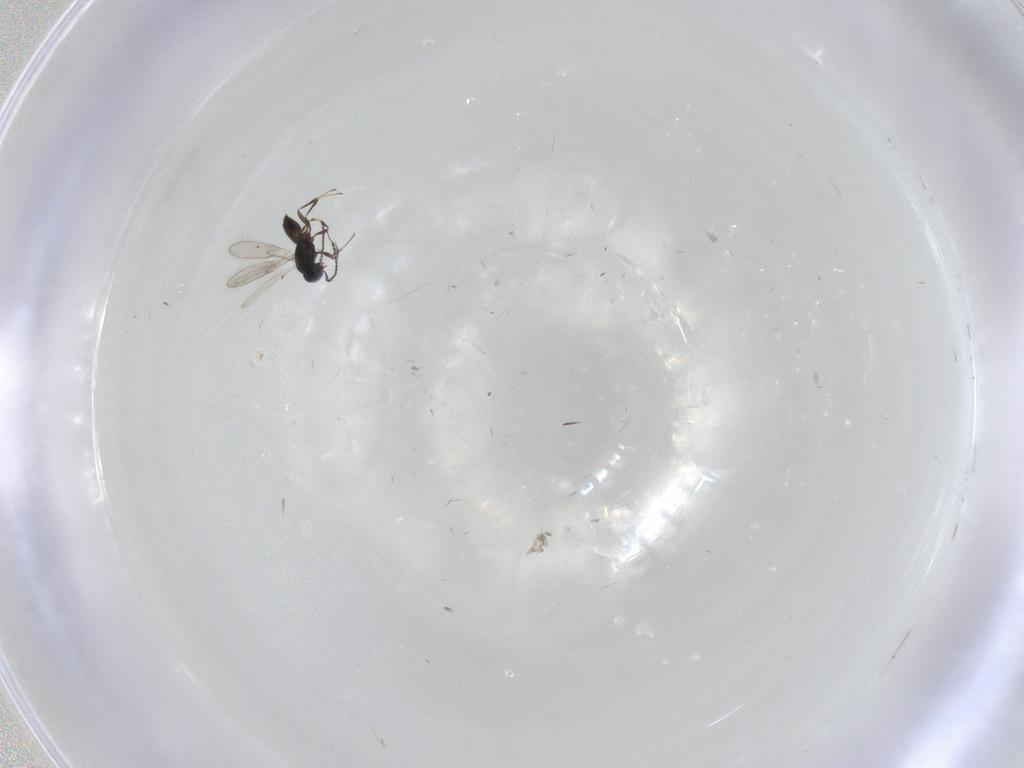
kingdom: Animalia
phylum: Arthropoda
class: Insecta
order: Hymenoptera
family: Scelionidae
